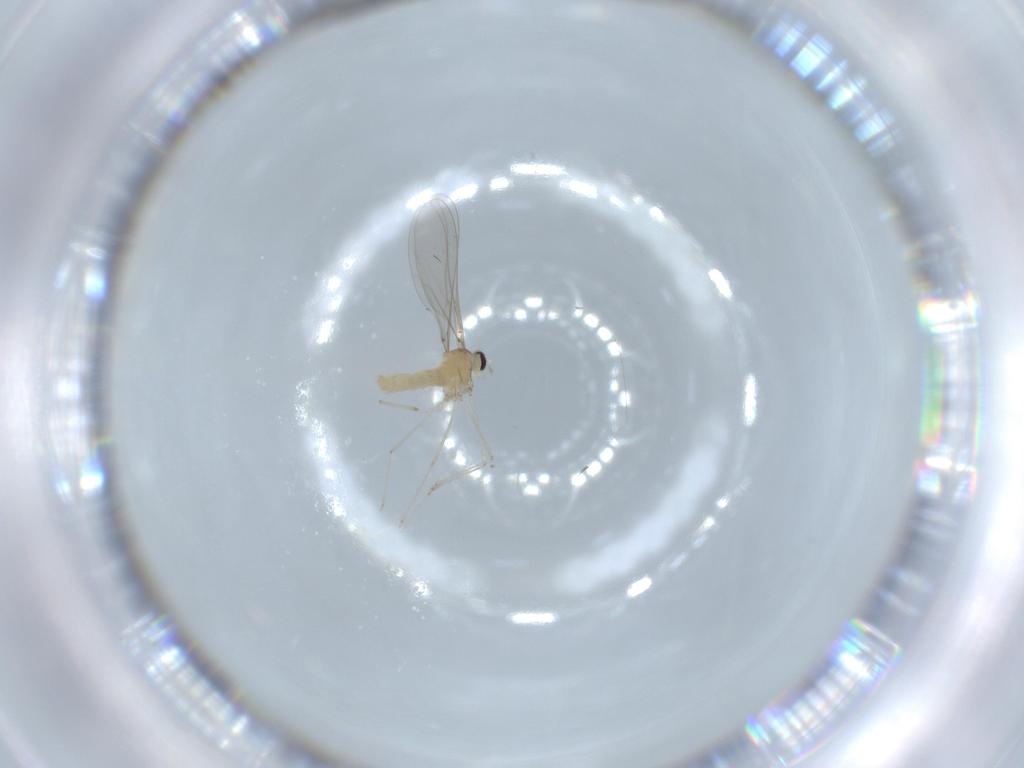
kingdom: Animalia
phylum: Arthropoda
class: Insecta
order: Diptera
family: Cecidomyiidae
